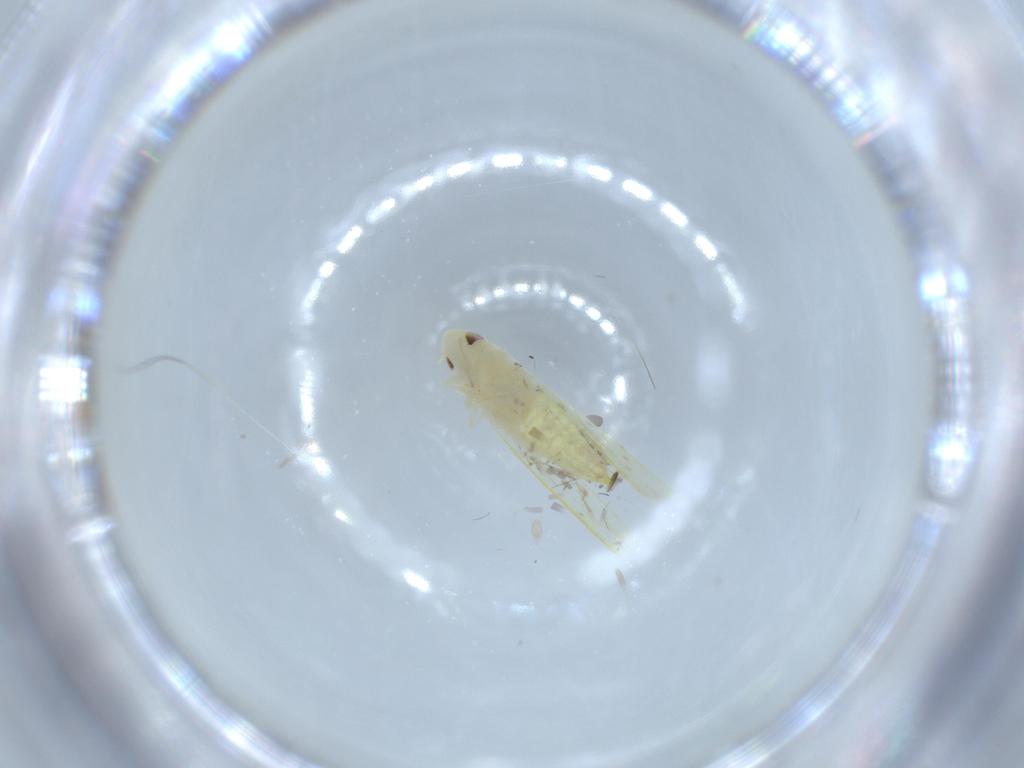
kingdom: Animalia
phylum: Arthropoda
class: Insecta
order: Hemiptera
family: Cicadellidae
